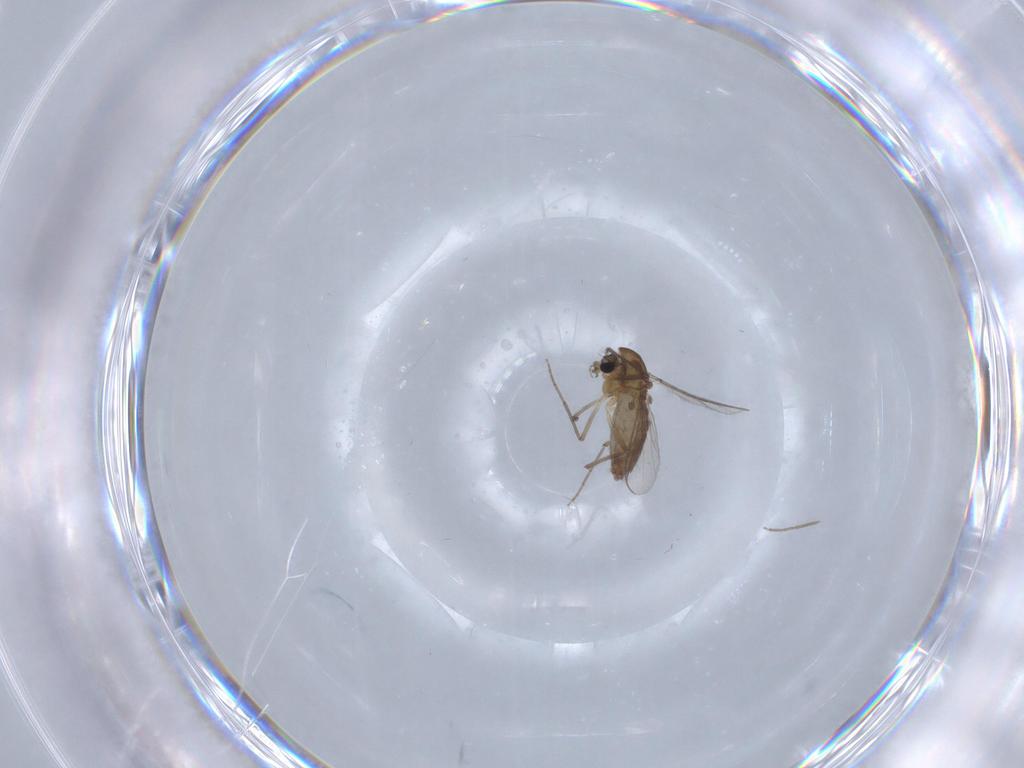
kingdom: Animalia
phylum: Arthropoda
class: Insecta
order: Diptera
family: Chironomidae
